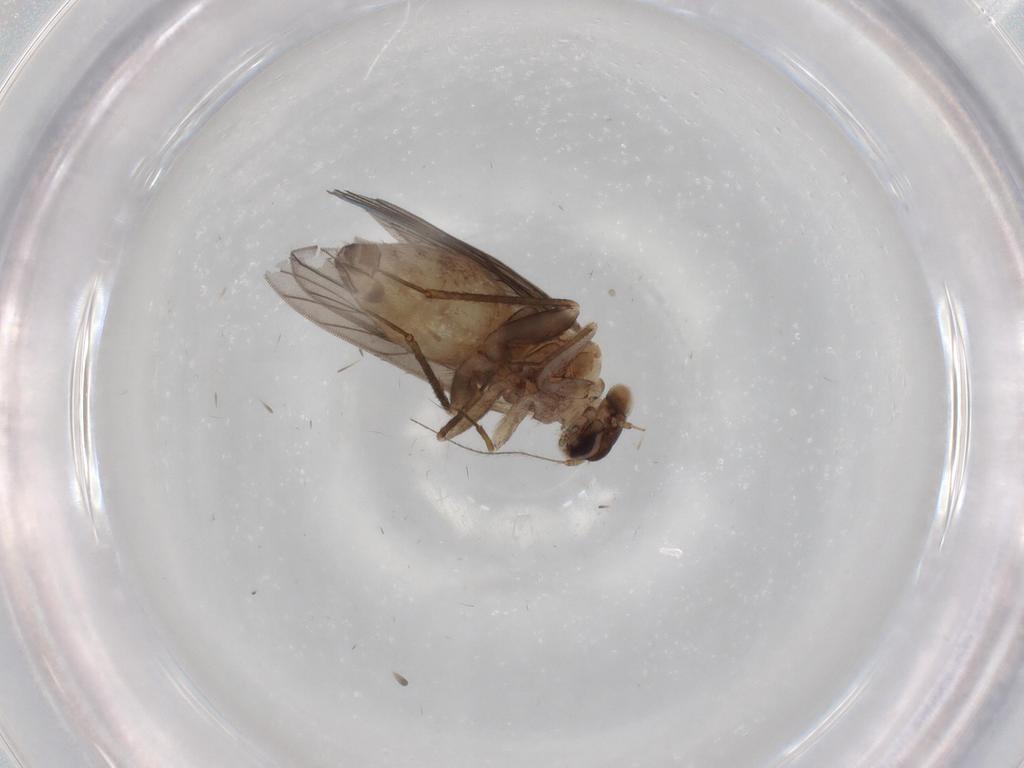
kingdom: Animalia
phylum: Arthropoda
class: Insecta
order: Psocodea
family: Lepidopsocidae
